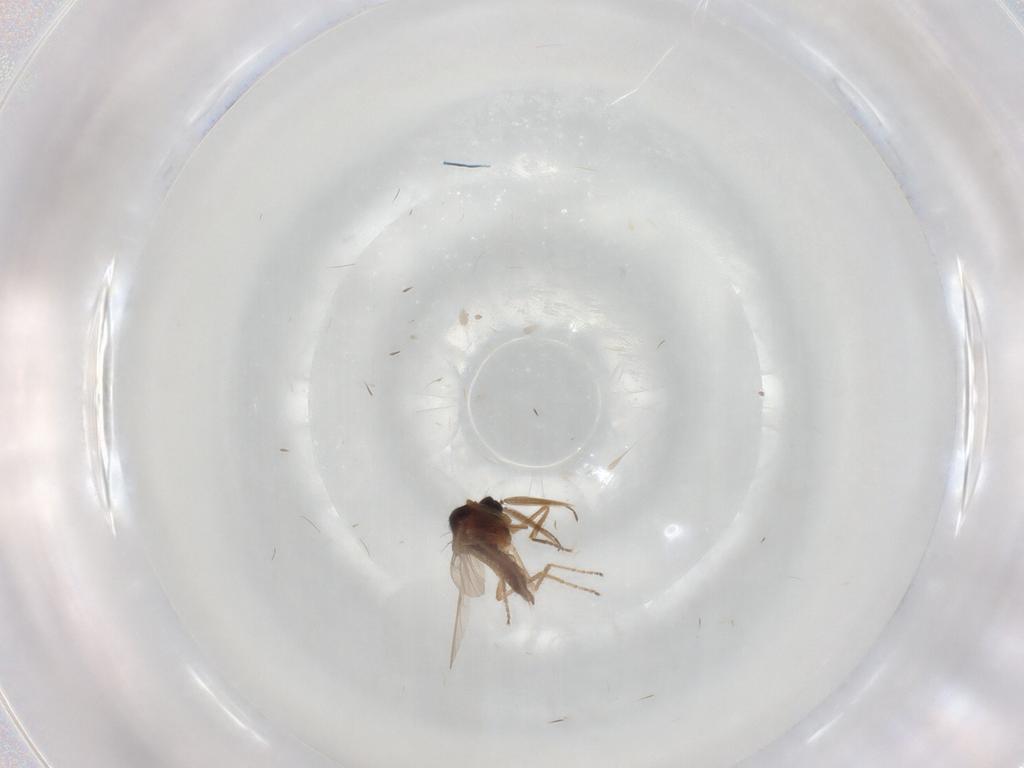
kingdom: Animalia
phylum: Arthropoda
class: Insecta
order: Diptera
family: Ceratopogonidae
